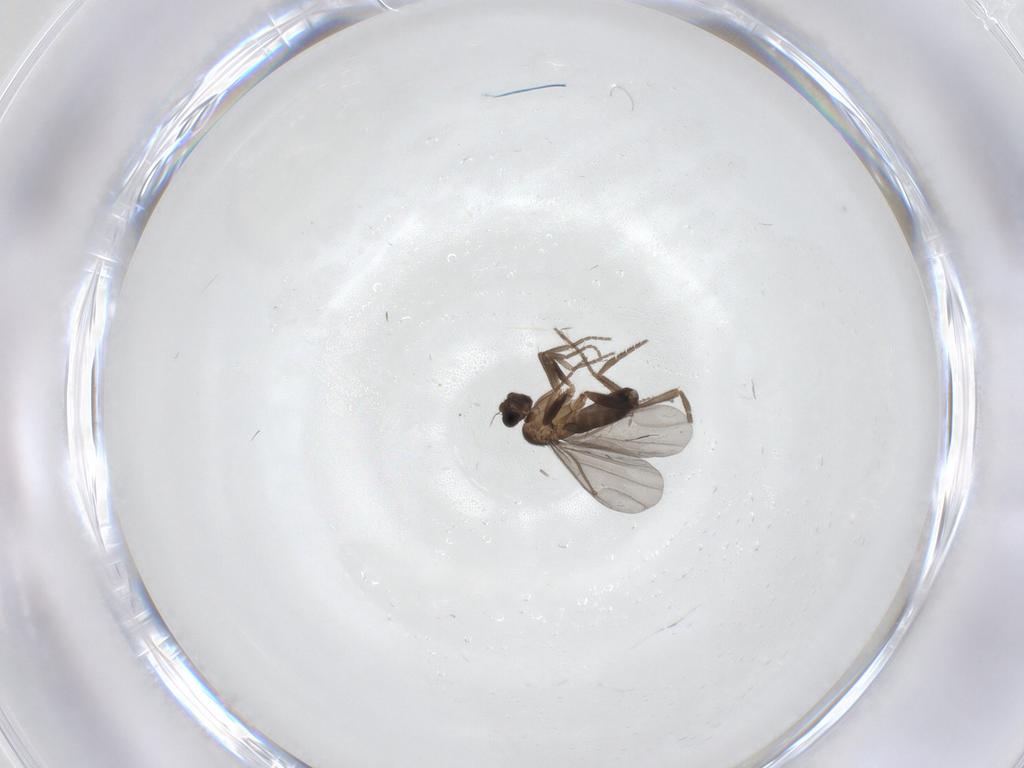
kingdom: Animalia
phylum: Arthropoda
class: Insecta
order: Diptera
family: Phoridae
